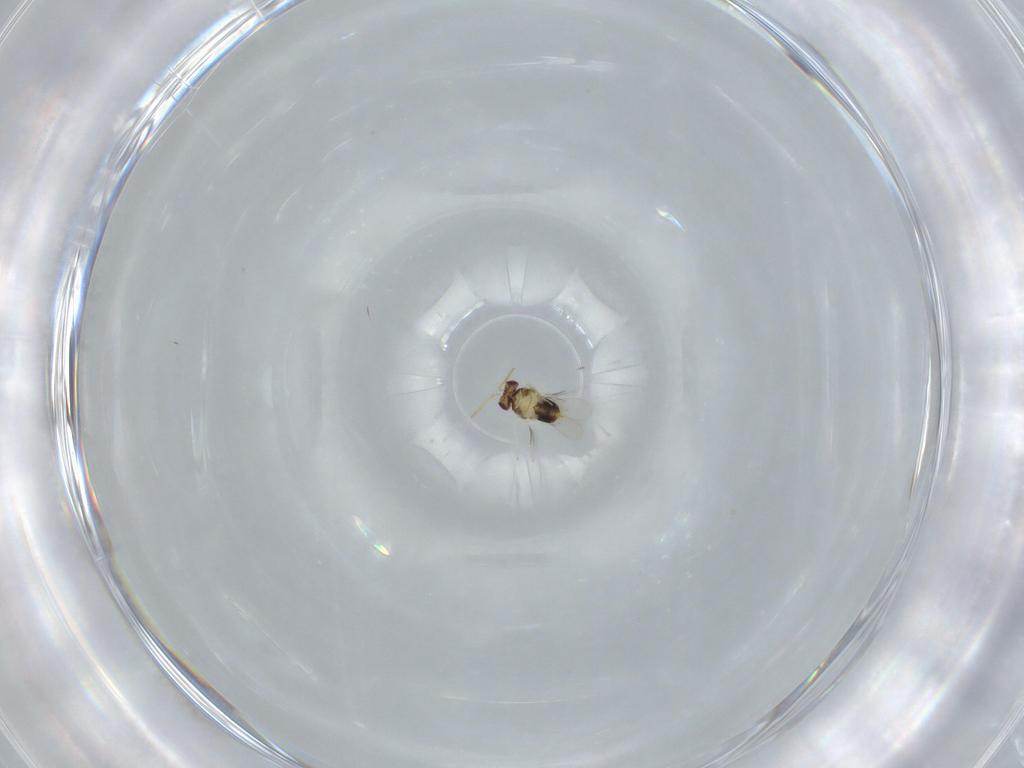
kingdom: Animalia
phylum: Arthropoda
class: Insecta
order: Hymenoptera
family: Aphelinidae
